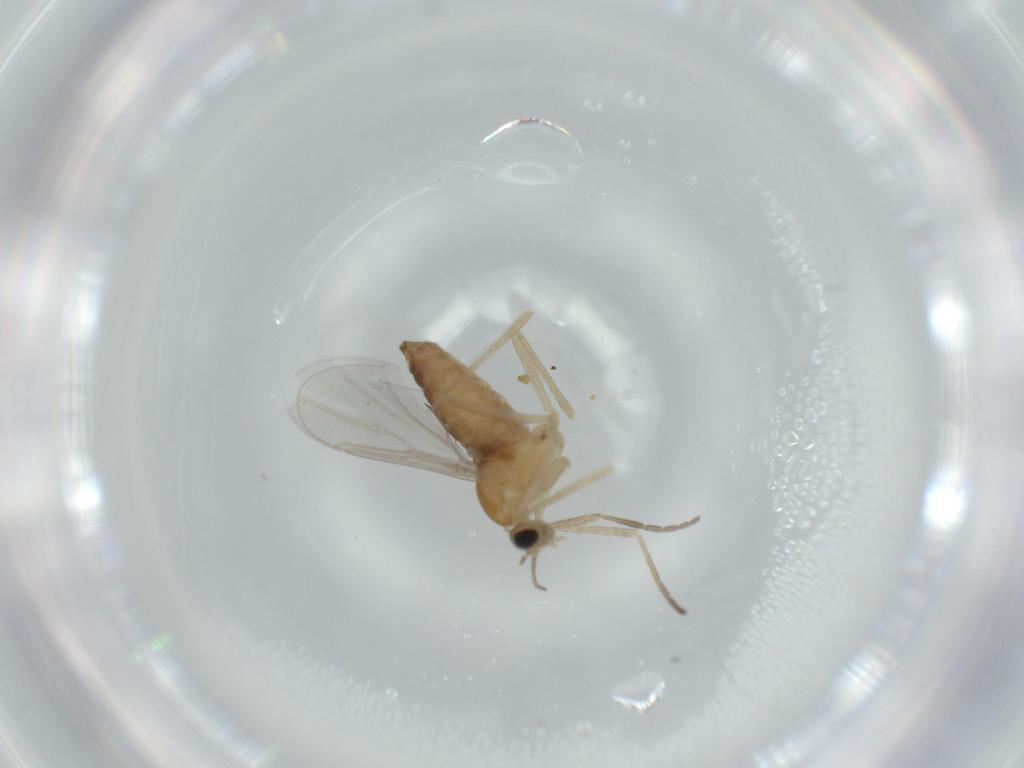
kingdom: Animalia
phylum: Arthropoda
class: Insecta
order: Diptera
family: Cecidomyiidae
